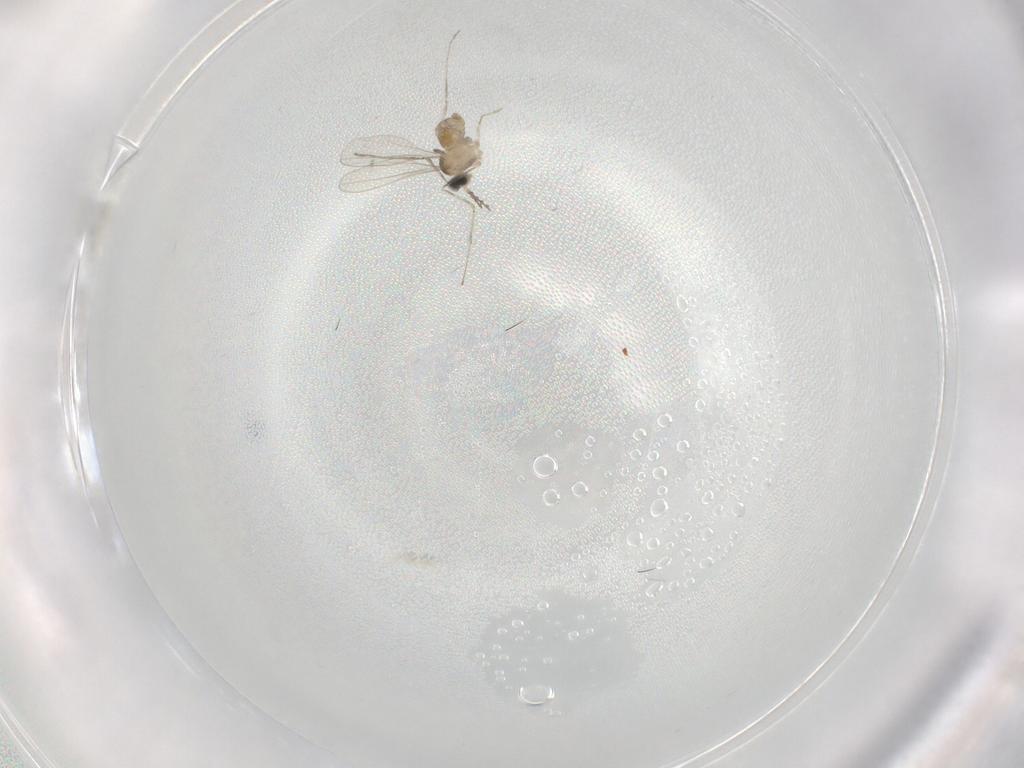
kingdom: Animalia
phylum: Arthropoda
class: Insecta
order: Diptera
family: Cecidomyiidae
